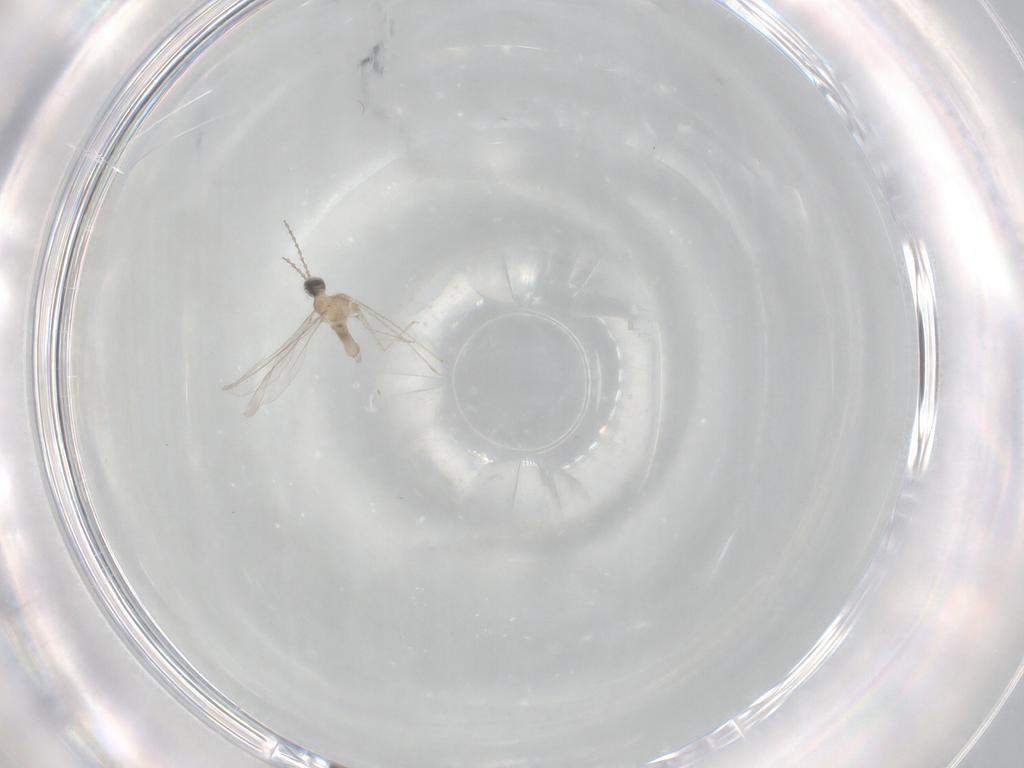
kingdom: Animalia
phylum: Arthropoda
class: Insecta
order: Diptera
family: Cecidomyiidae
